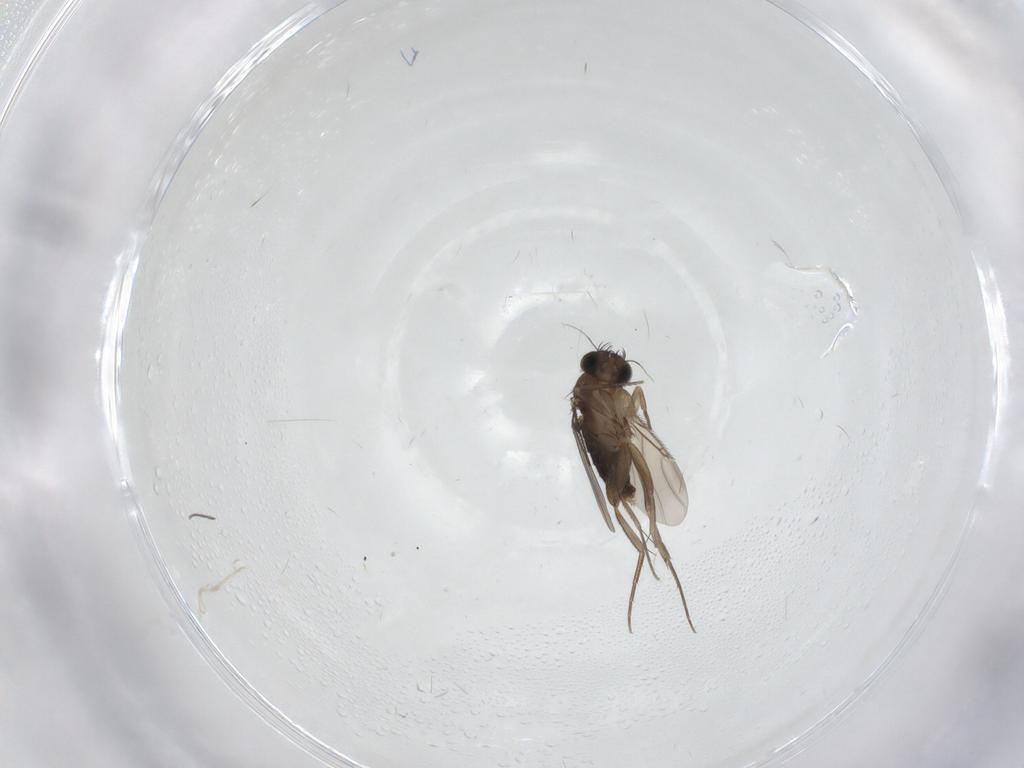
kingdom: Animalia
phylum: Arthropoda
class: Insecta
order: Diptera
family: Phoridae
